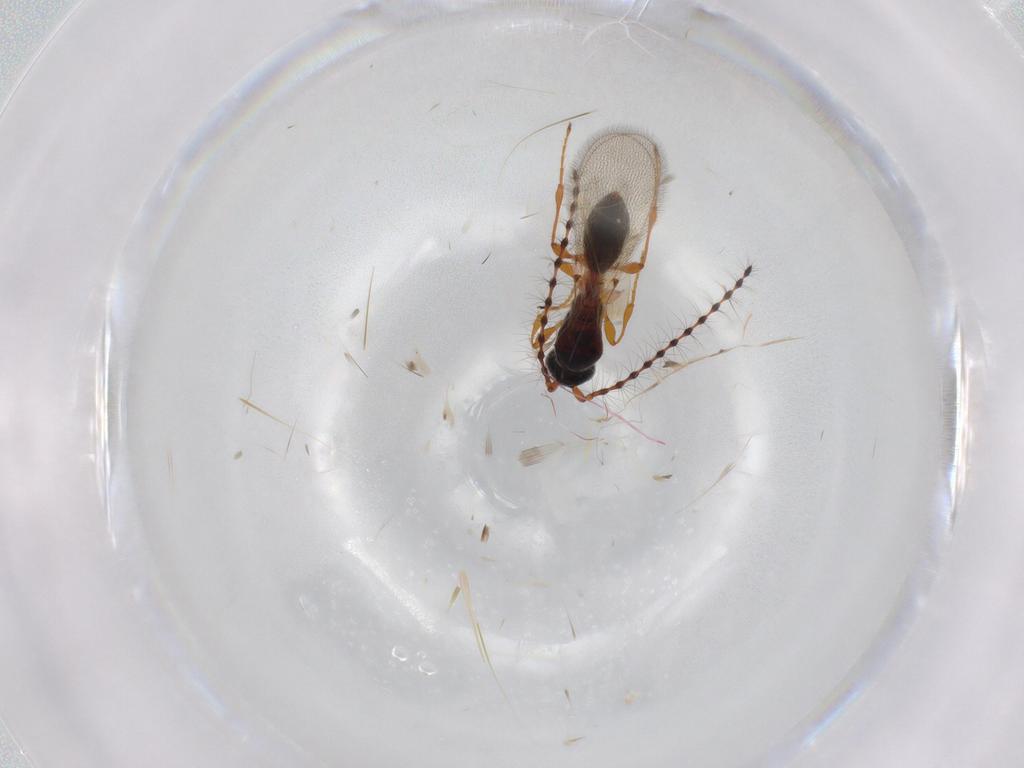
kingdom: Animalia
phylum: Arthropoda
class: Insecta
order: Hymenoptera
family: Diapriidae
